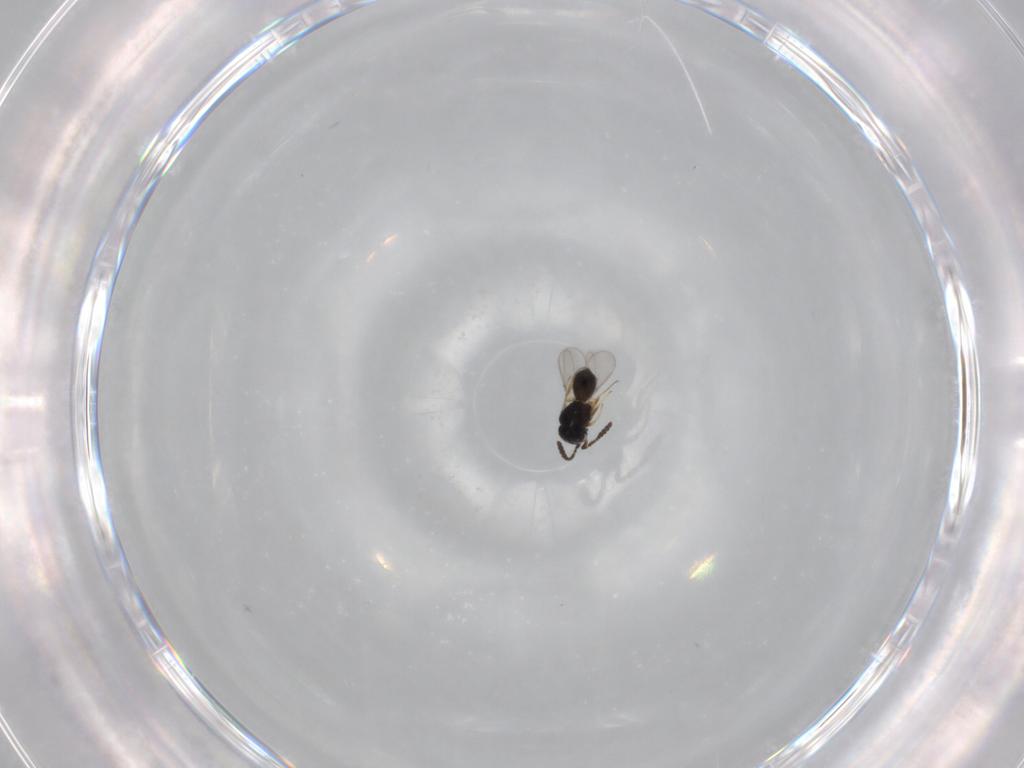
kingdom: Animalia
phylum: Arthropoda
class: Insecta
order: Hymenoptera
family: Scelionidae
